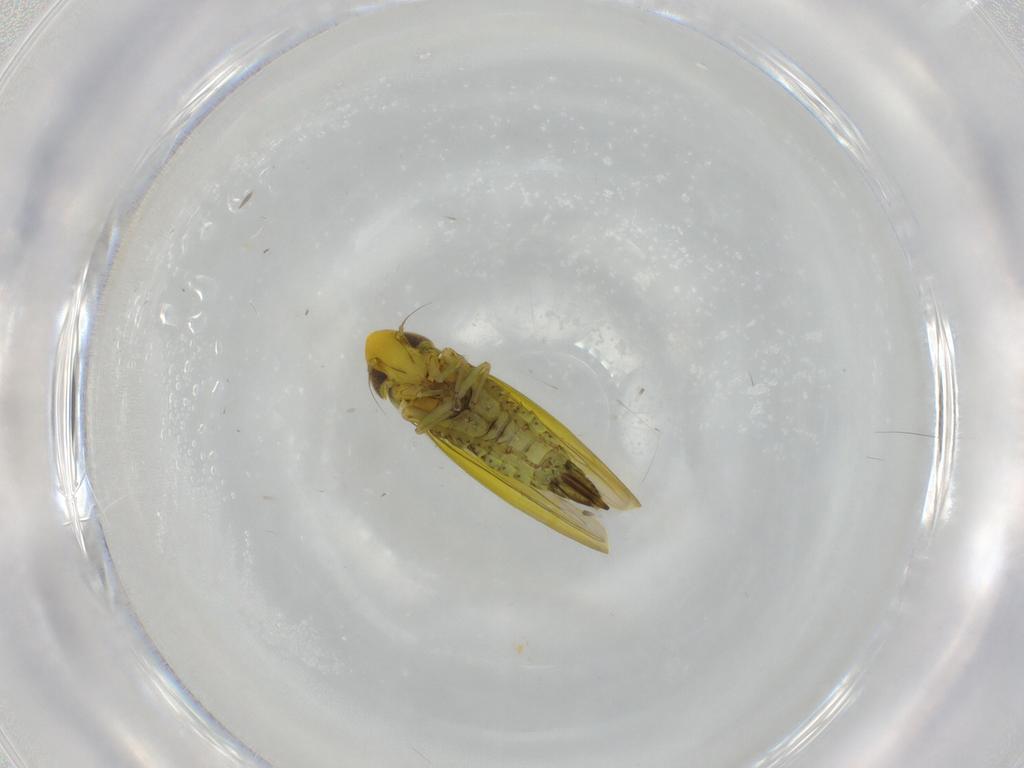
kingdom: Animalia
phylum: Arthropoda
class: Insecta
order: Hemiptera
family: Cicadellidae
